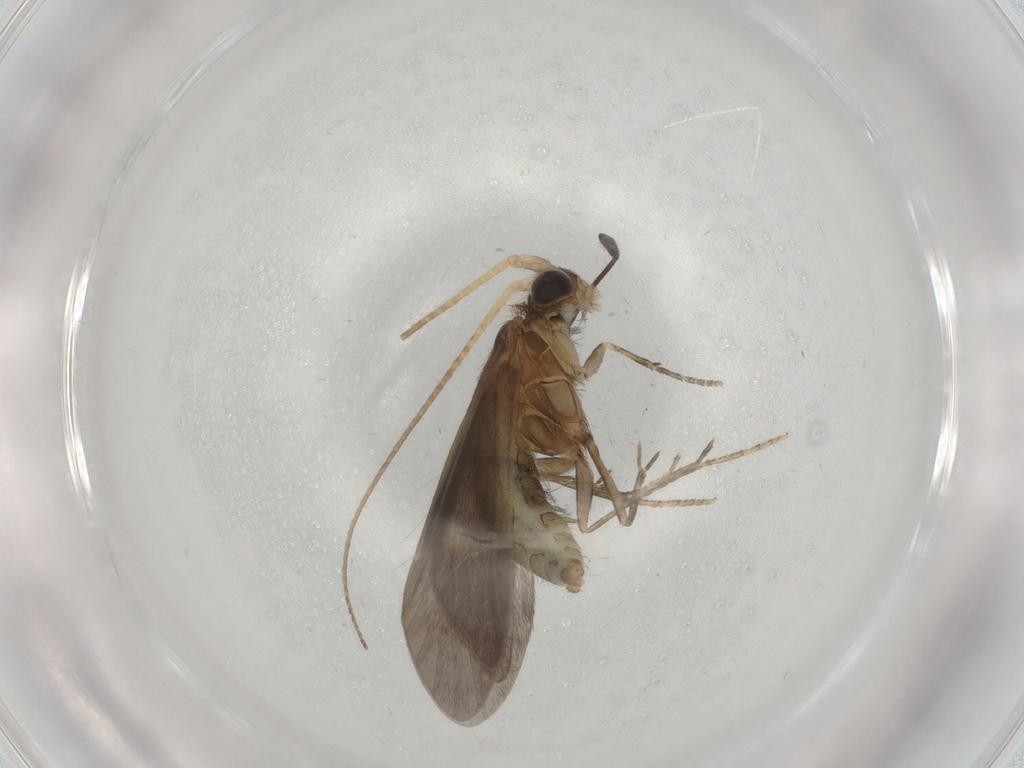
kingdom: Animalia
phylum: Arthropoda
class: Insecta
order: Trichoptera
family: Helicopsychidae
